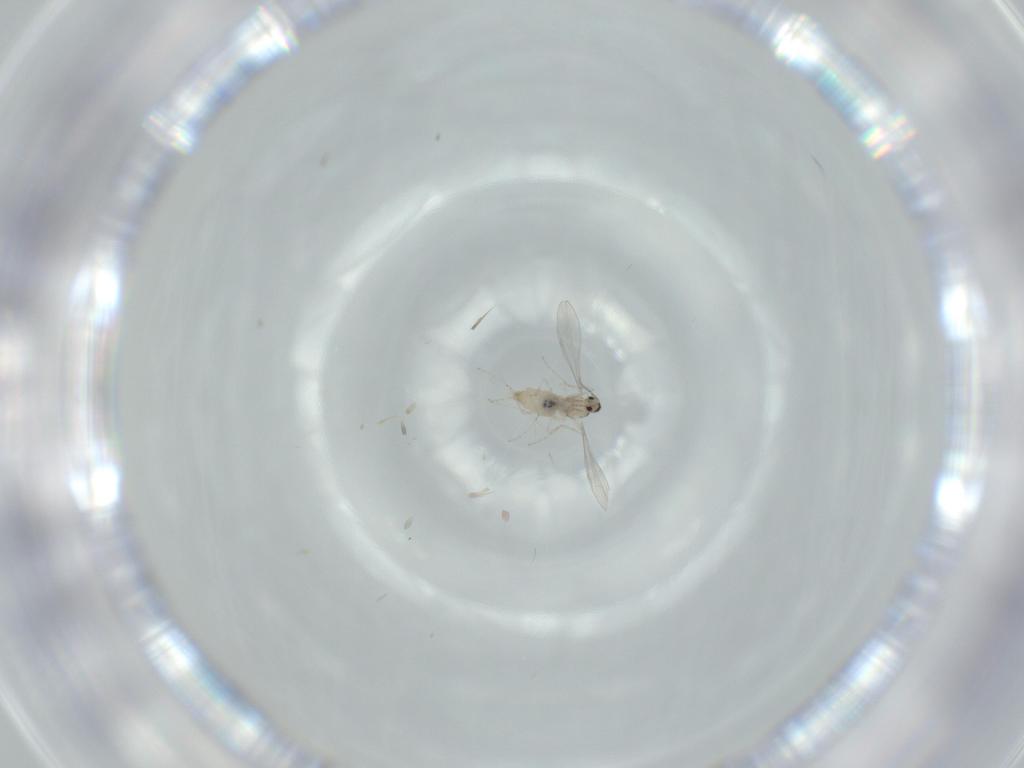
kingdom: Animalia
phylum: Arthropoda
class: Insecta
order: Diptera
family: Cecidomyiidae
